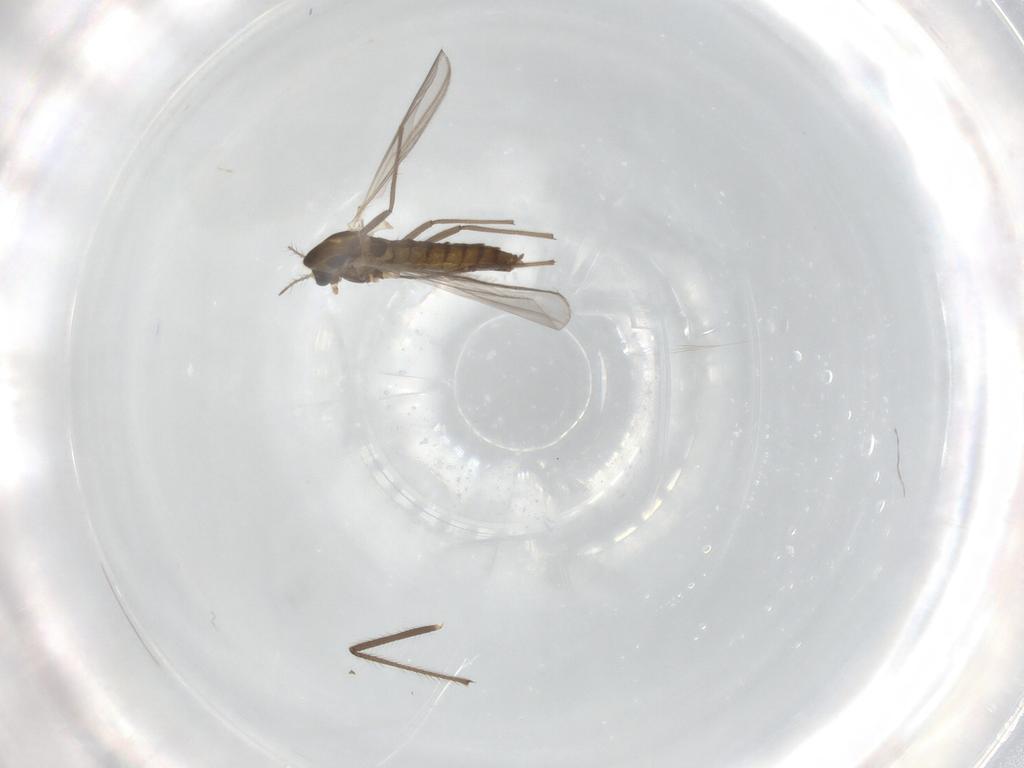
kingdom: Animalia
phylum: Arthropoda
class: Insecta
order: Diptera
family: Chironomidae
